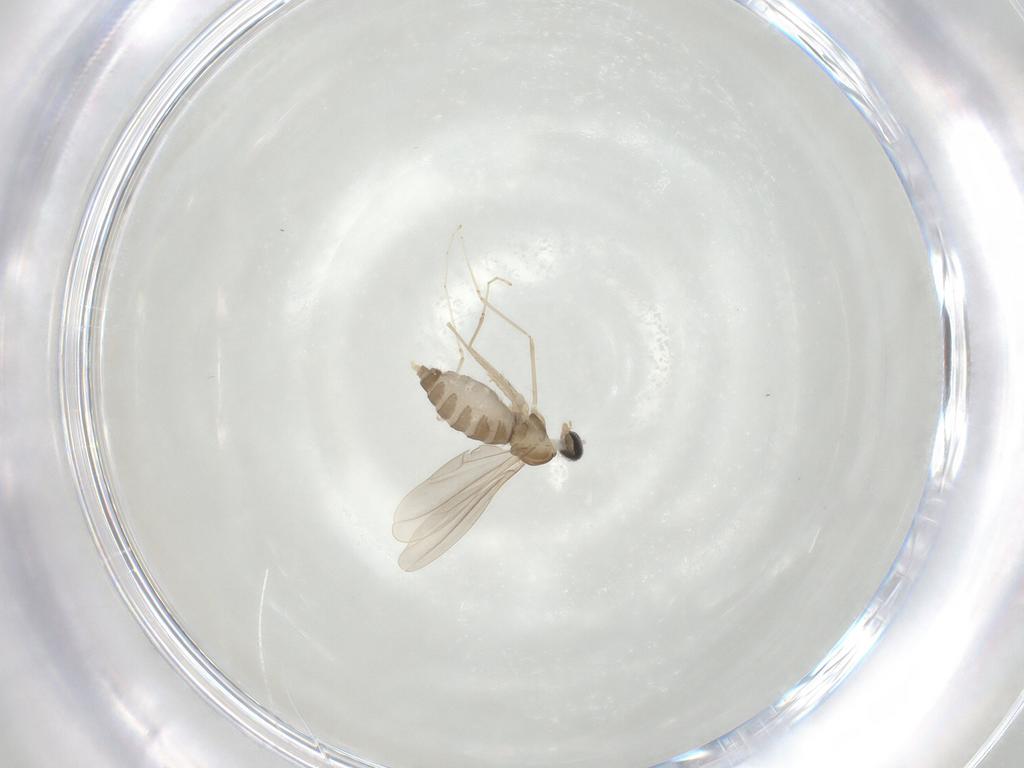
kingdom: Animalia
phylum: Arthropoda
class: Insecta
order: Diptera
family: Cecidomyiidae
